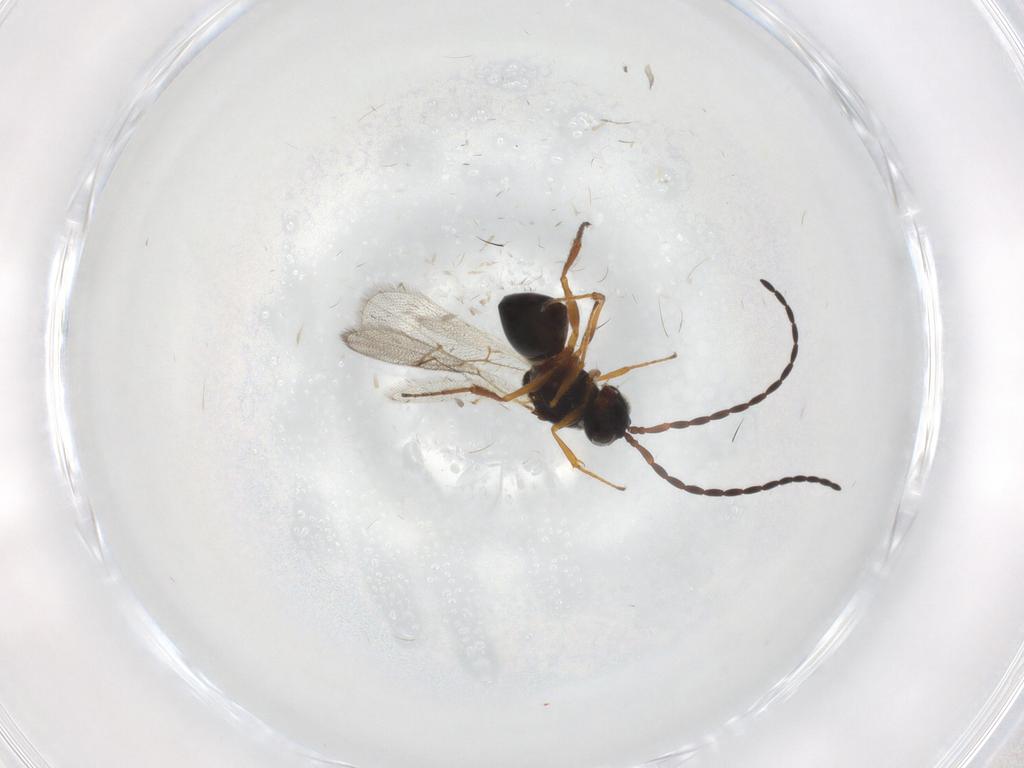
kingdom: Animalia
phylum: Arthropoda
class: Insecta
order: Hymenoptera
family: Figitidae
